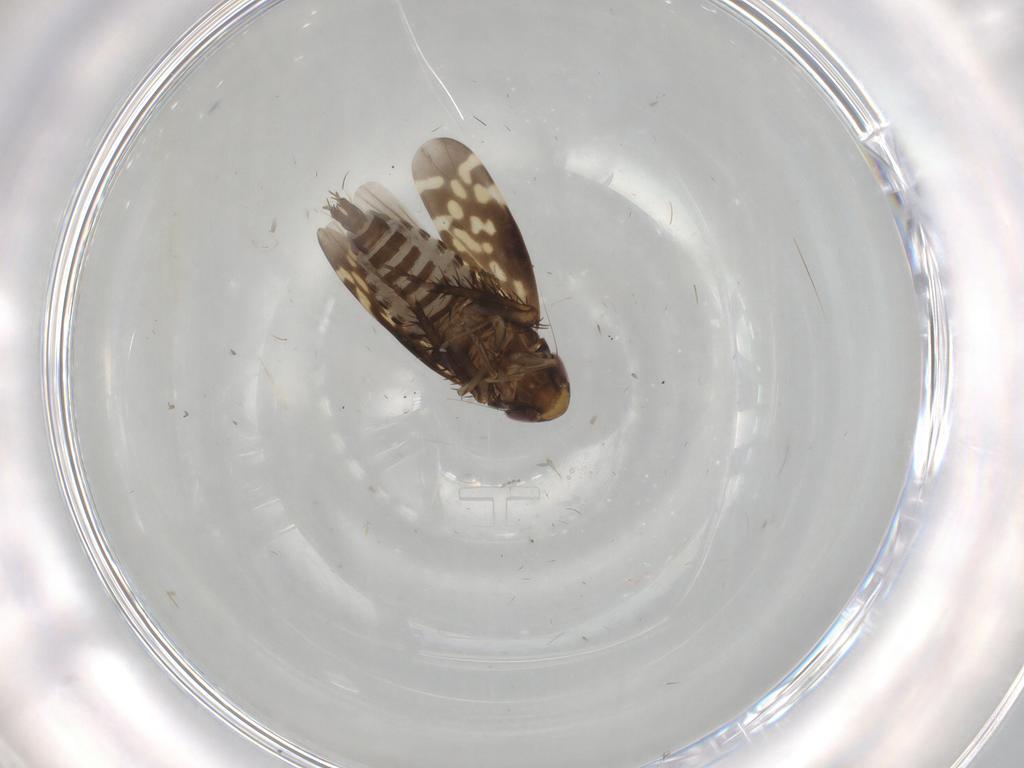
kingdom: Animalia
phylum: Arthropoda
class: Insecta
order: Hemiptera
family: Cicadellidae
